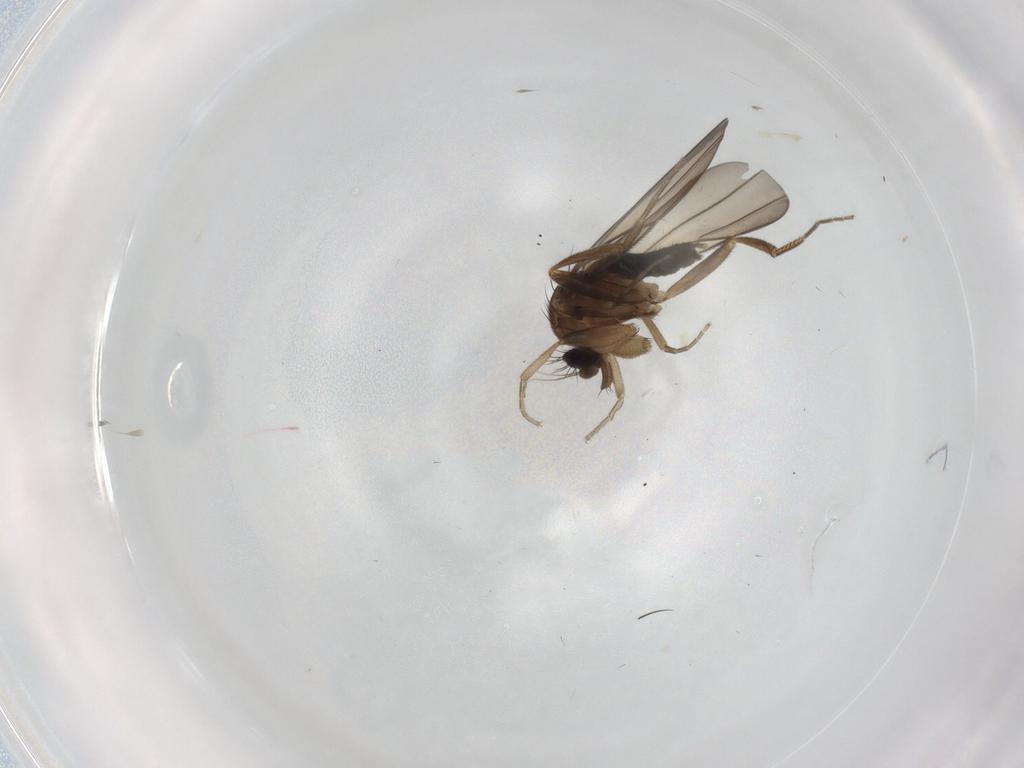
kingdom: Animalia
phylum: Arthropoda
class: Insecta
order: Diptera
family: Phoridae
